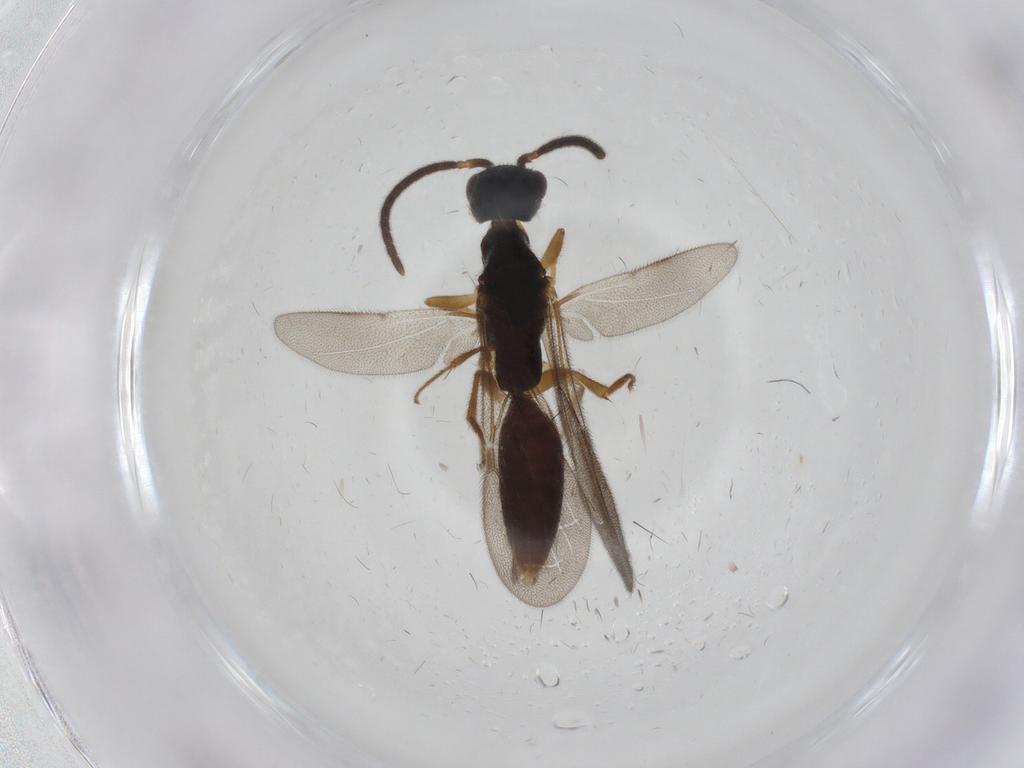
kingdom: Animalia
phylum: Arthropoda
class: Insecta
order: Hymenoptera
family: Bethylidae
